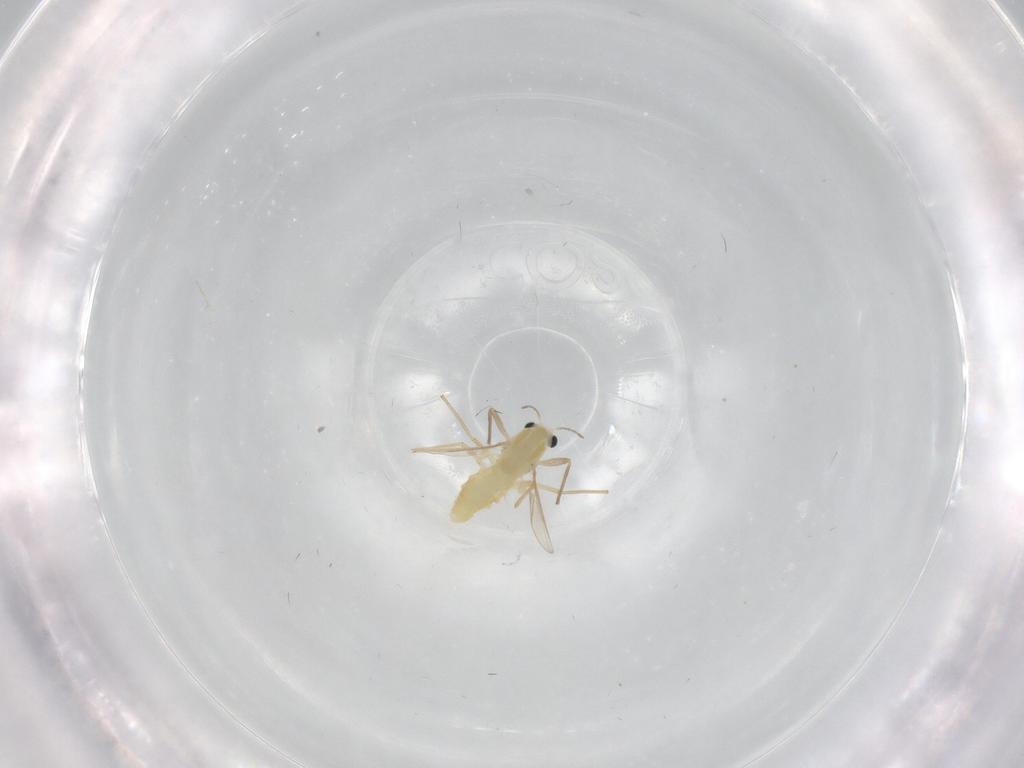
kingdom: Animalia
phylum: Arthropoda
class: Insecta
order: Diptera
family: Chironomidae
